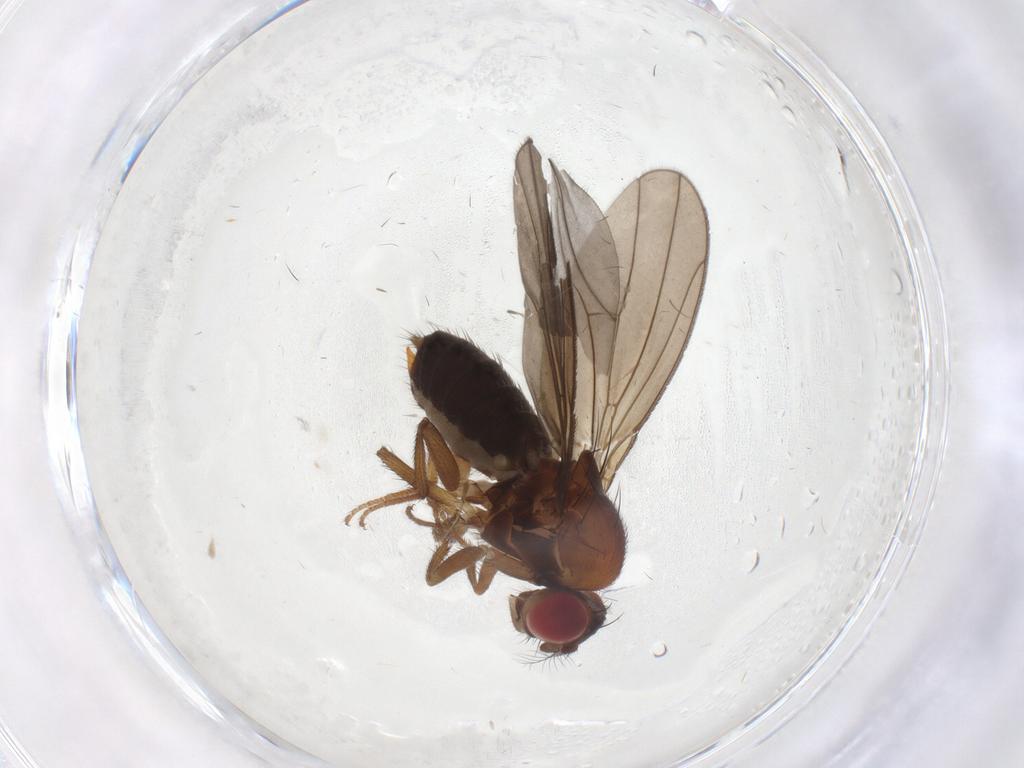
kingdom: Animalia
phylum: Arthropoda
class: Insecta
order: Diptera
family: Drosophilidae
